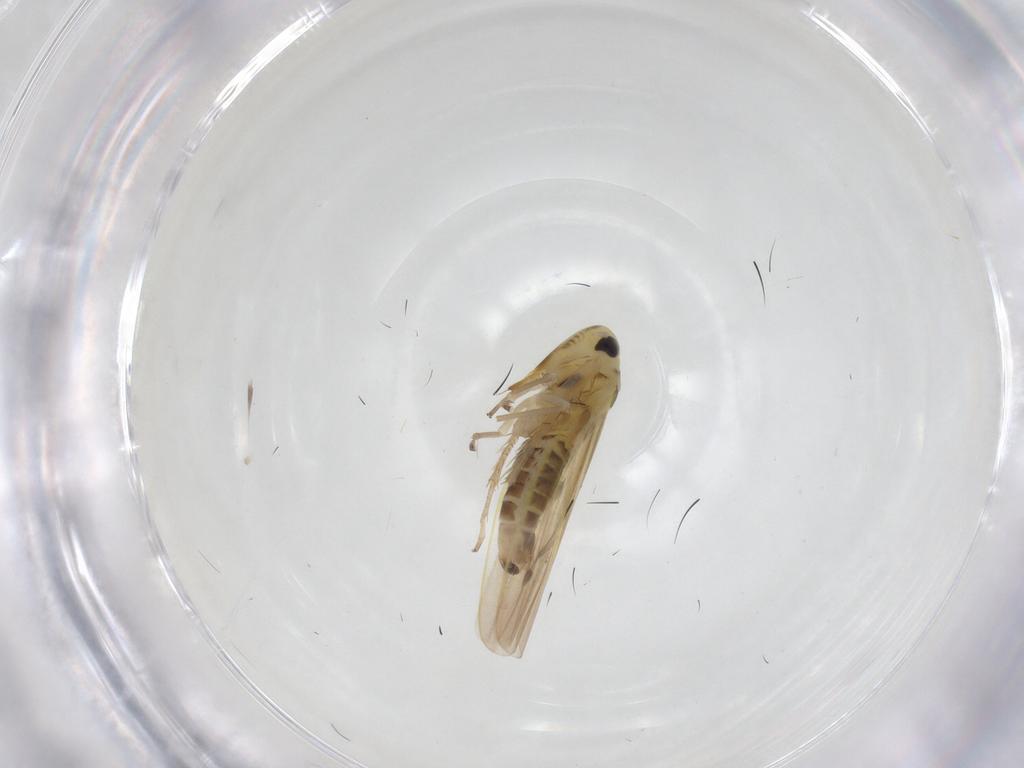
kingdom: Animalia
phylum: Arthropoda
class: Insecta
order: Hemiptera
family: Cicadellidae
